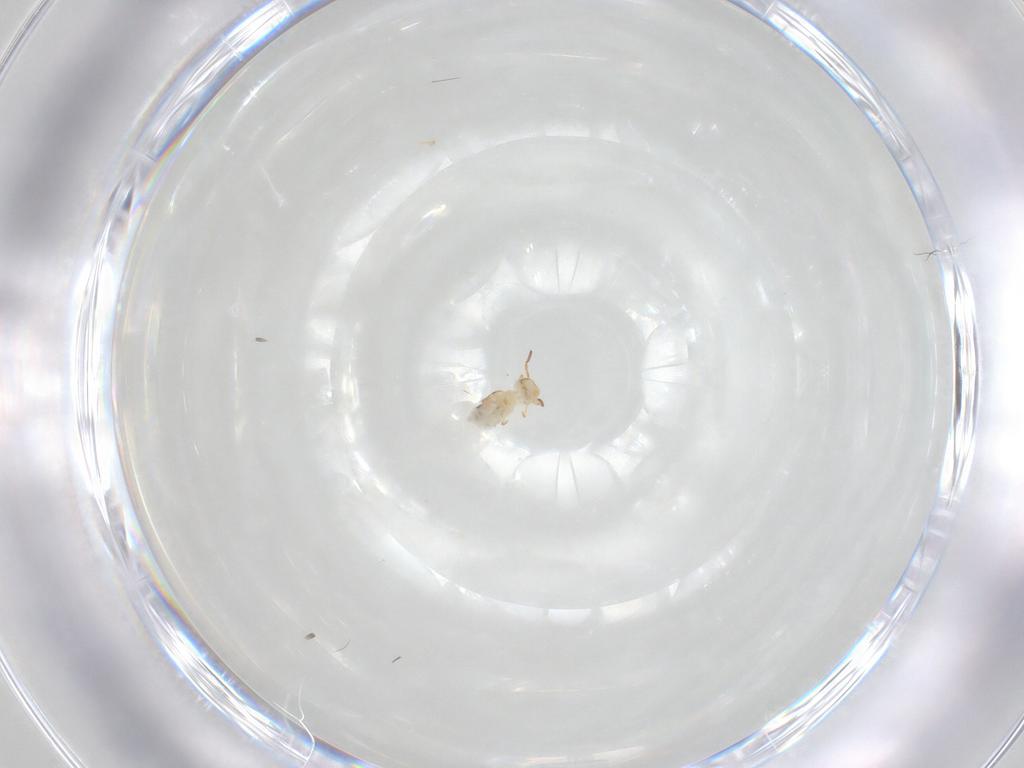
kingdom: Animalia
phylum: Arthropoda
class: Collembola
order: Symphypleona
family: Bourletiellidae
